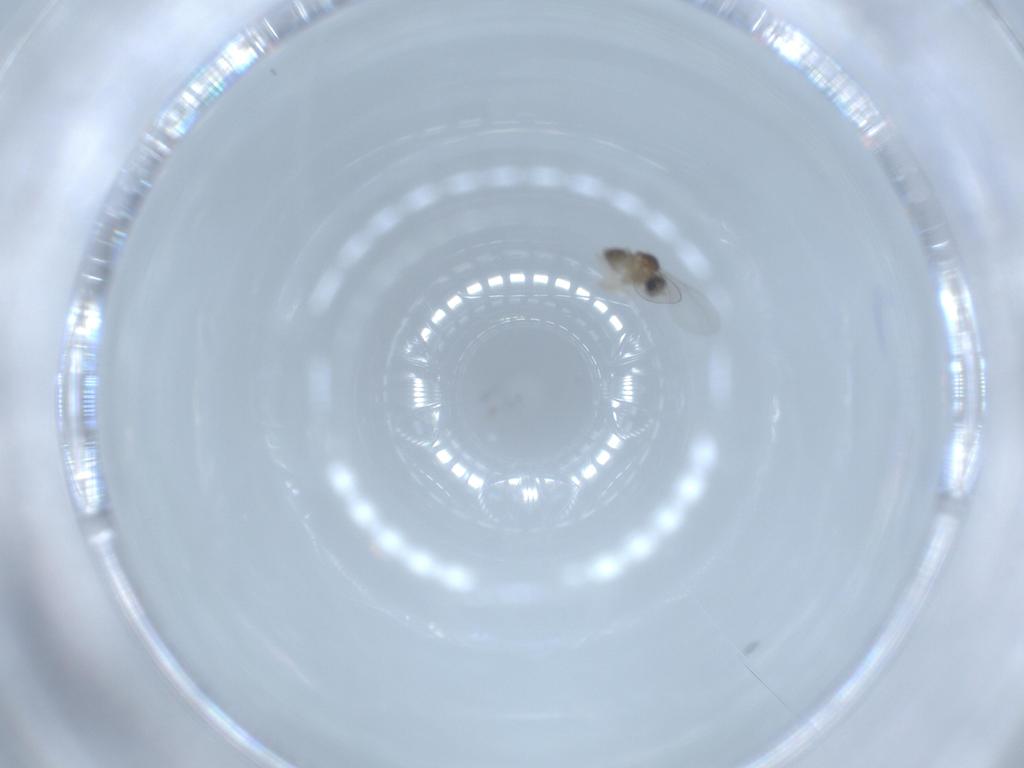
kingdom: Animalia
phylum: Arthropoda
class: Insecta
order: Diptera
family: Cecidomyiidae
